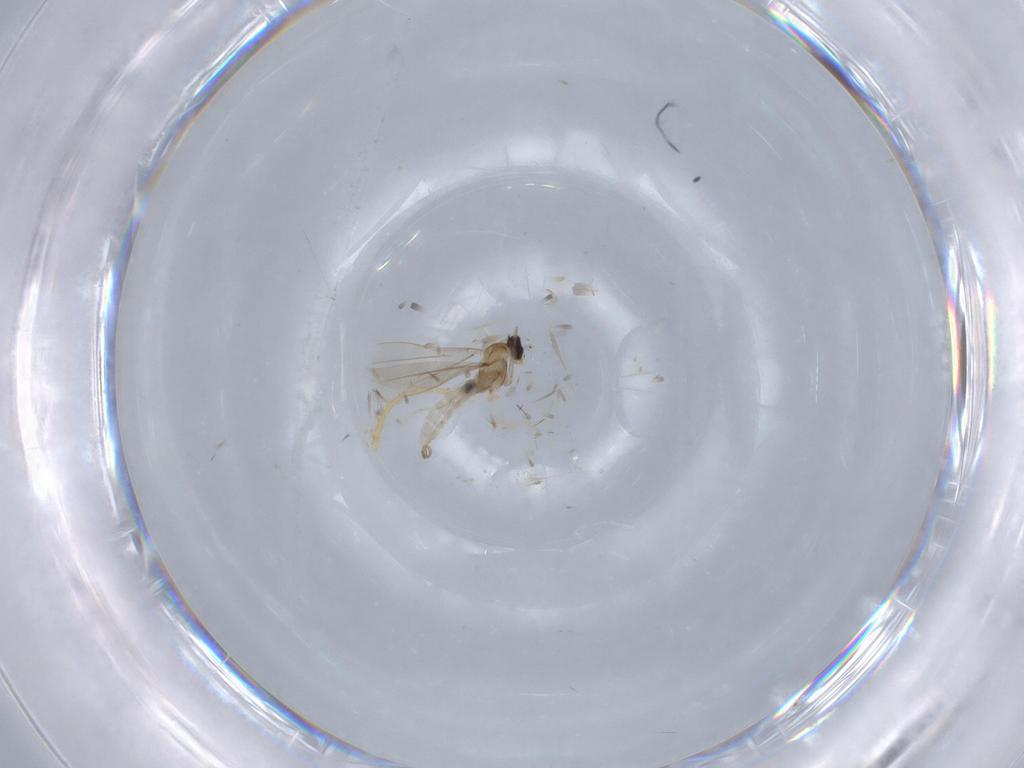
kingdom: Animalia
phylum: Arthropoda
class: Insecta
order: Diptera
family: Cecidomyiidae
